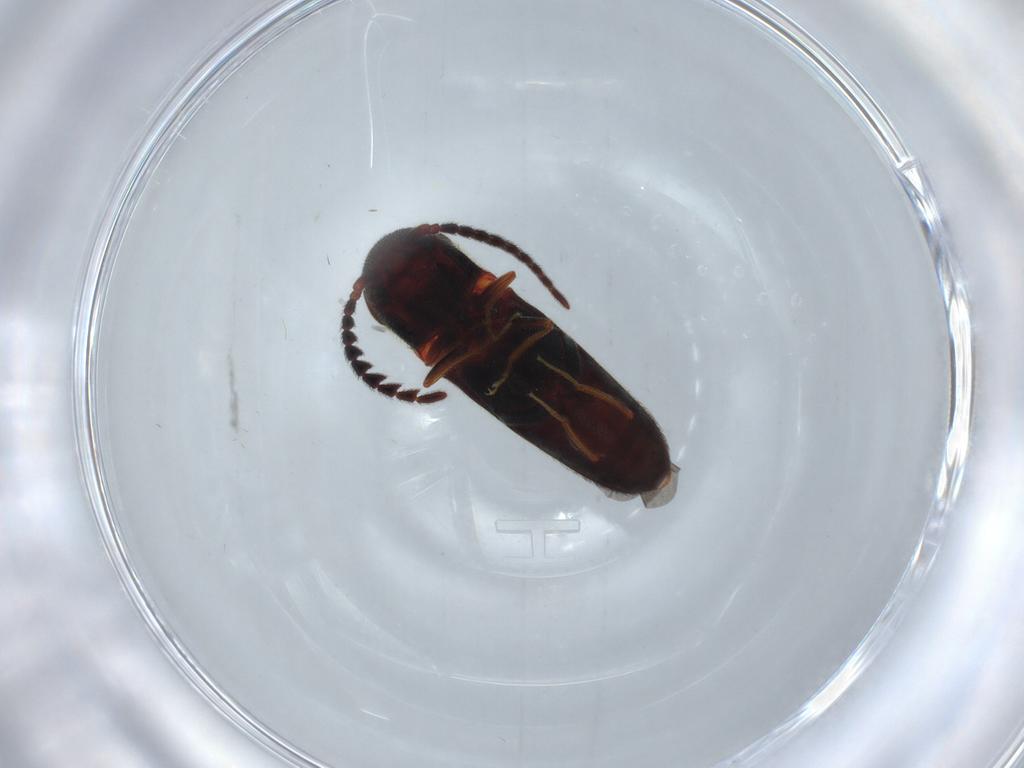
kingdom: Animalia
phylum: Arthropoda
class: Insecta
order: Coleoptera
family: Eucnemidae
